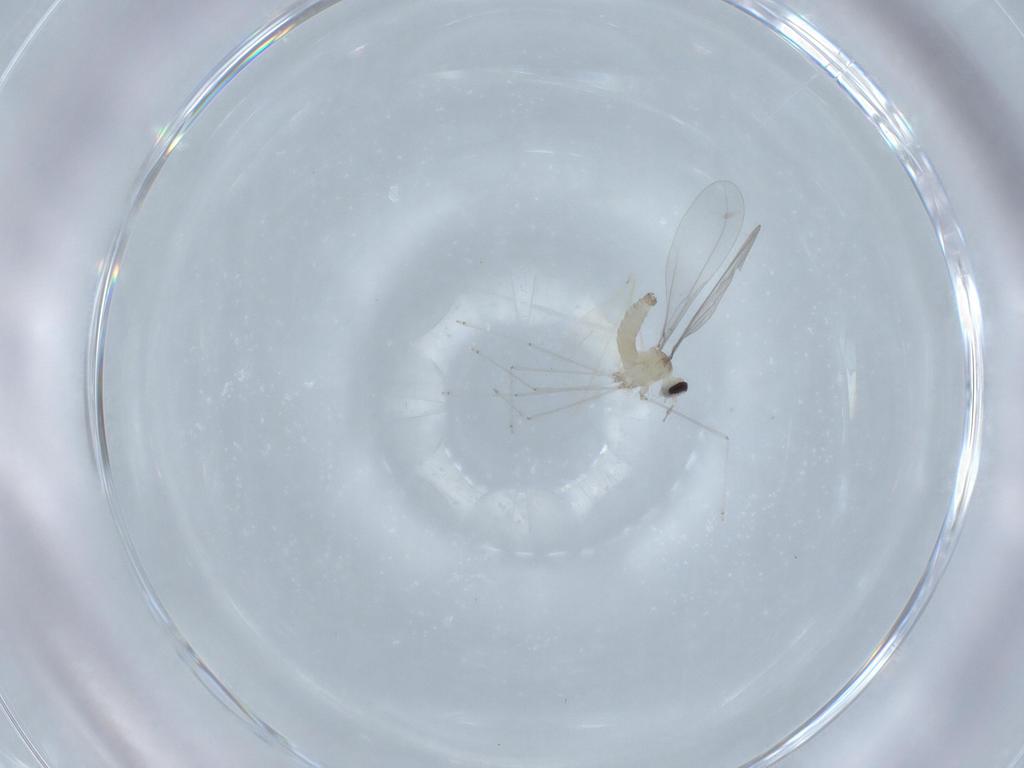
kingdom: Animalia
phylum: Arthropoda
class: Insecta
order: Diptera
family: Cecidomyiidae
